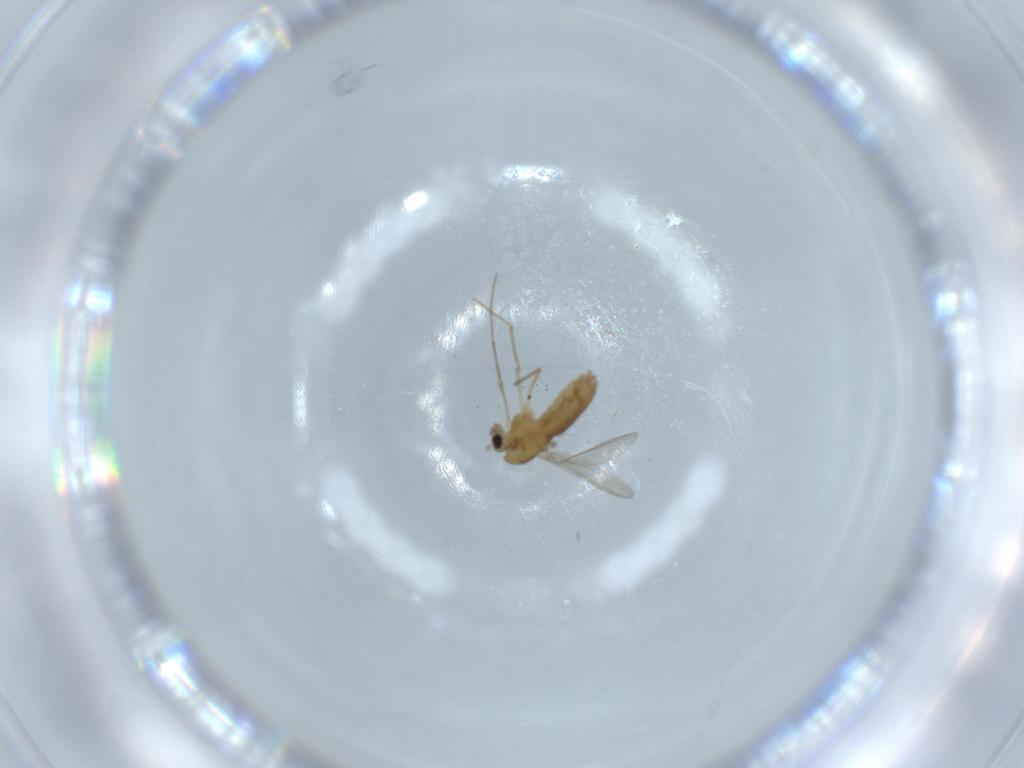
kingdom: Animalia
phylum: Arthropoda
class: Insecta
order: Diptera
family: Chironomidae
